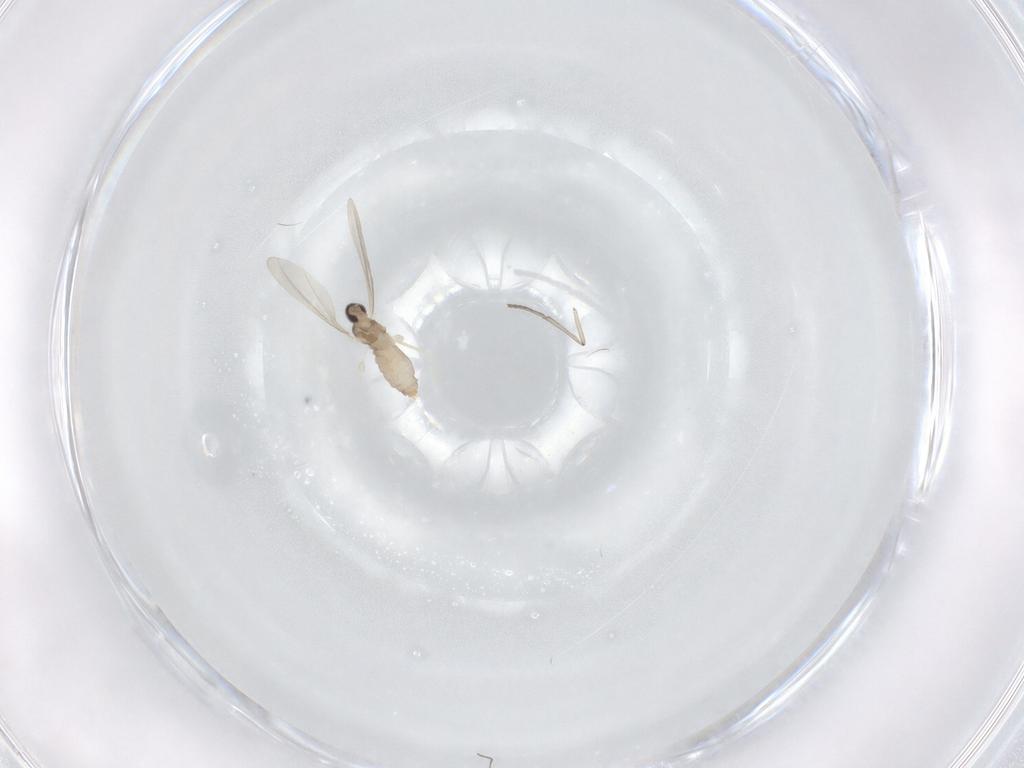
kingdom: Animalia
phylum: Arthropoda
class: Insecta
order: Diptera
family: Cecidomyiidae
